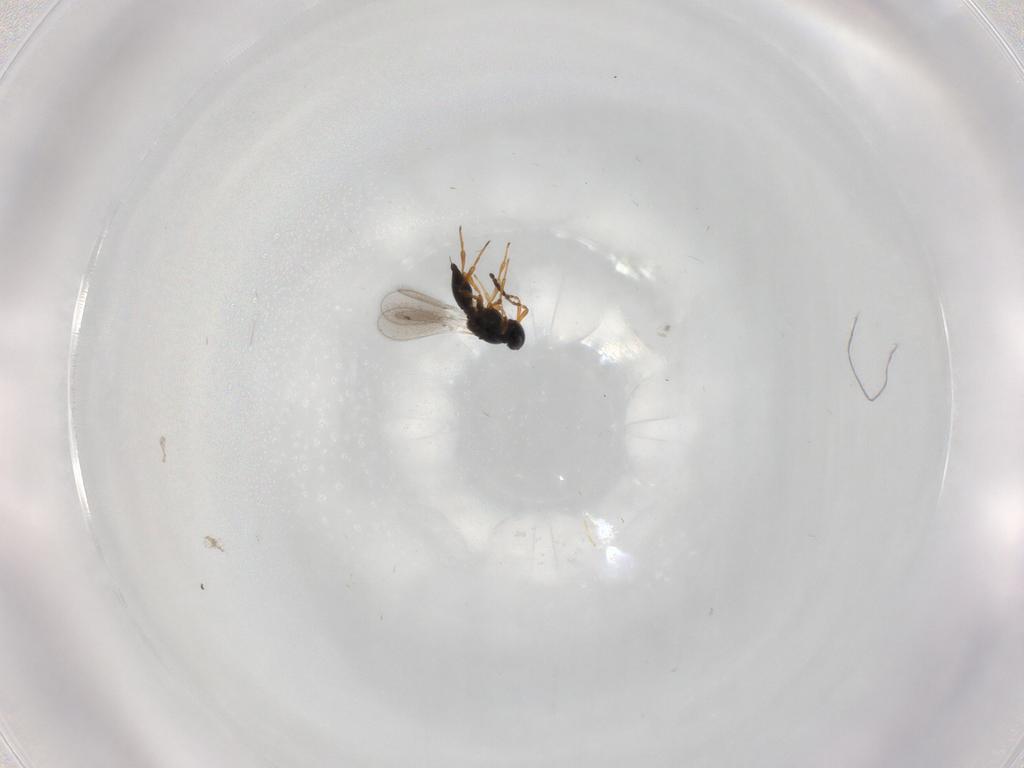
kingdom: Animalia
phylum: Arthropoda
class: Insecta
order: Hymenoptera
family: Platygastridae
